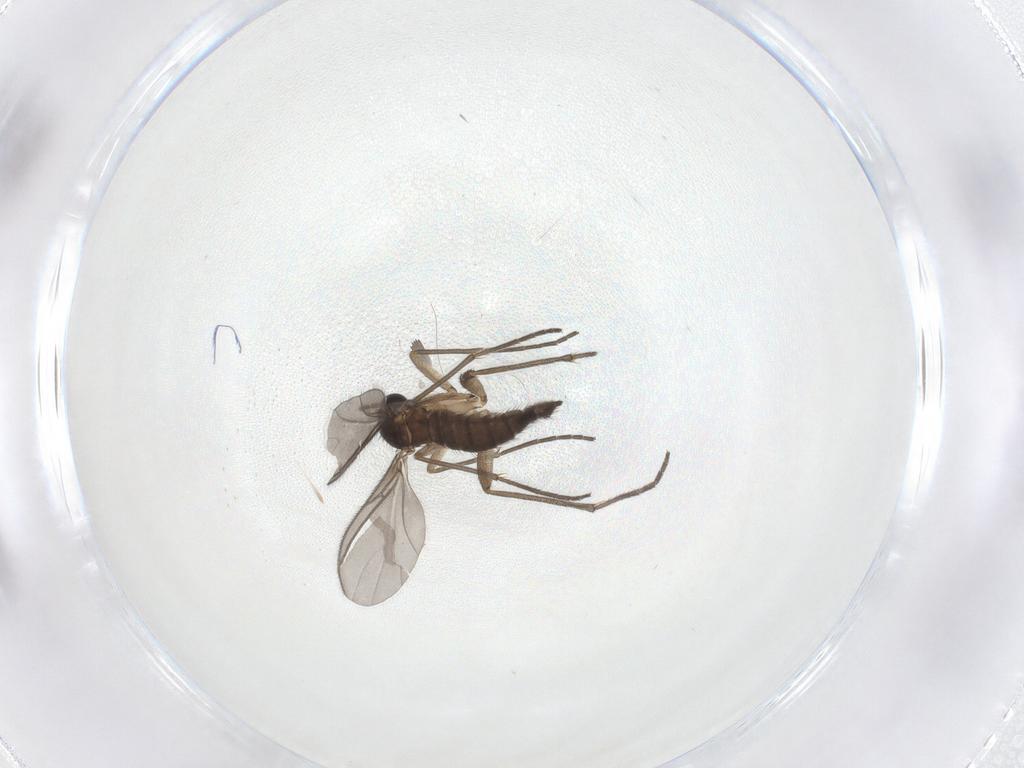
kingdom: Animalia
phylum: Arthropoda
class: Insecta
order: Diptera
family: Sciaridae
